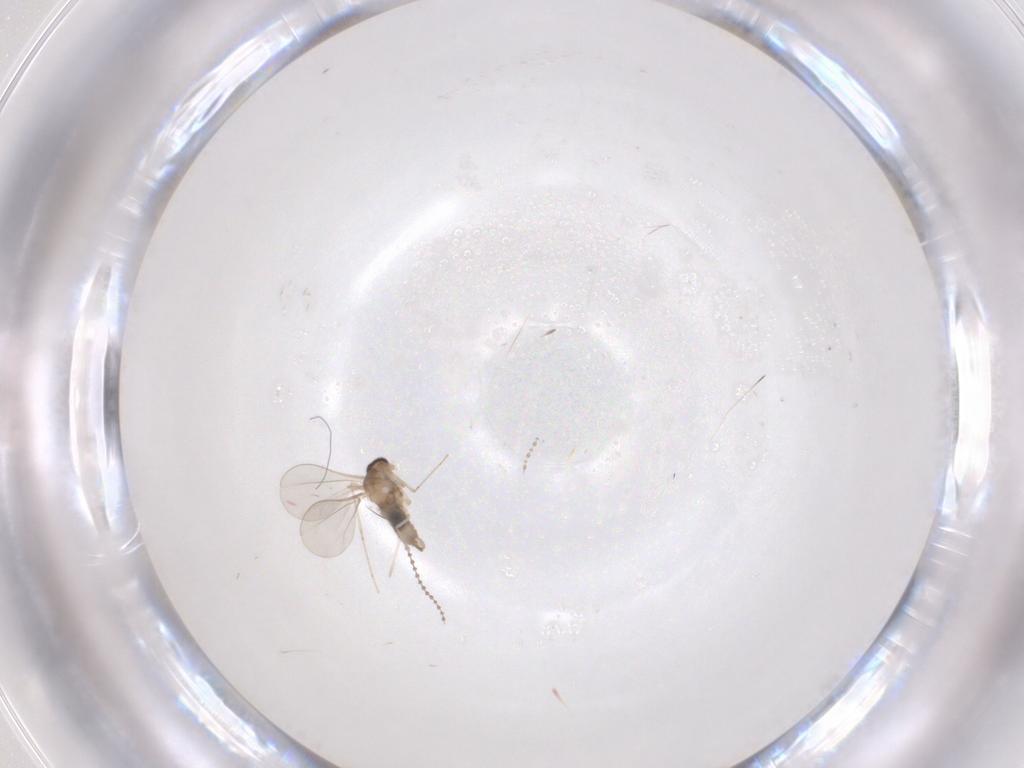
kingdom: Animalia
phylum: Arthropoda
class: Insecta
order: Diptera
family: Cecidomyiidae
